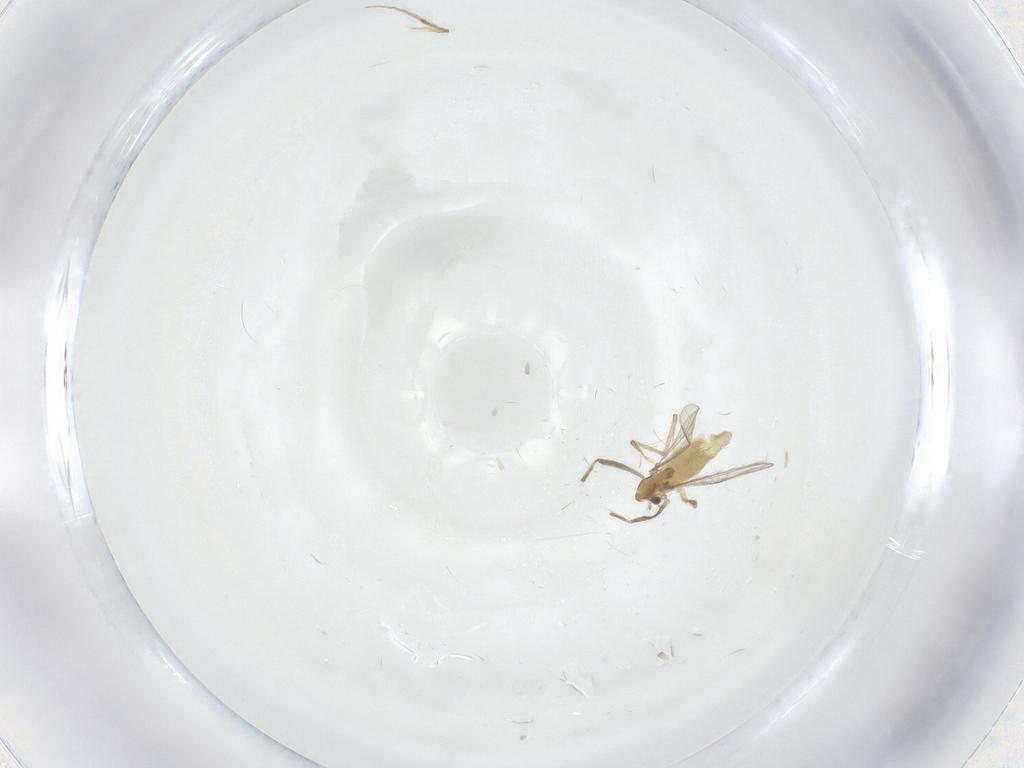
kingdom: Animalia
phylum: Arthropoda
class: Insecta
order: Diptera
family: Chironomidae
